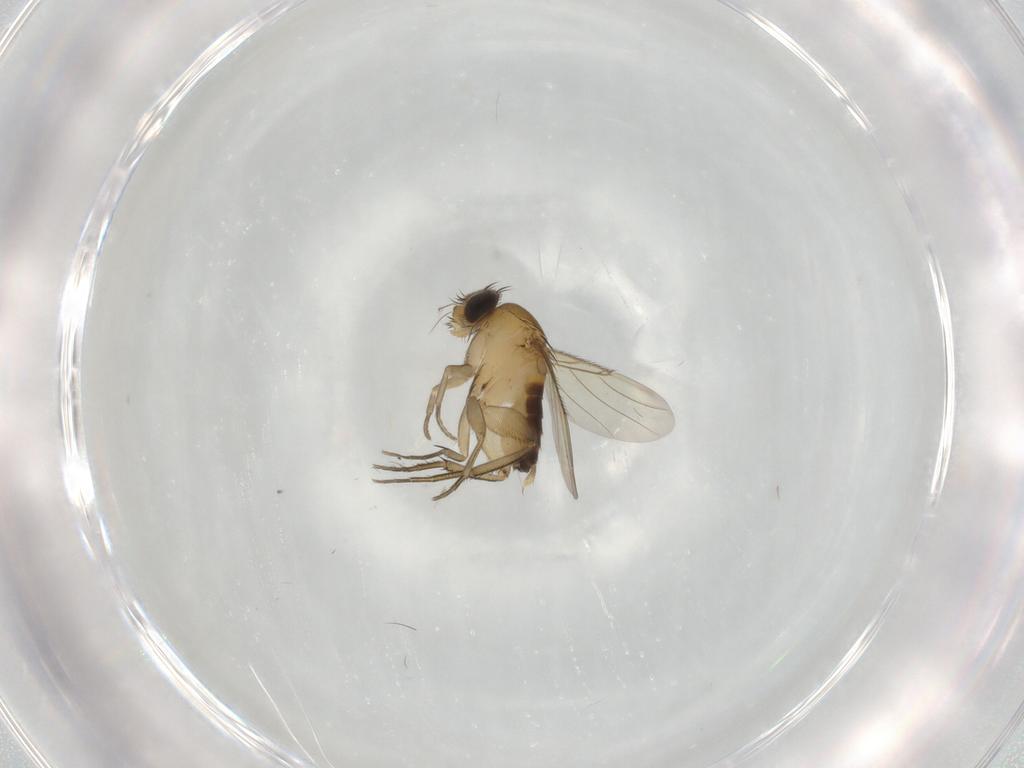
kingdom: Animalia
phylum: Arthropoda
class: Insecta
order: Diptera
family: Phoridae
